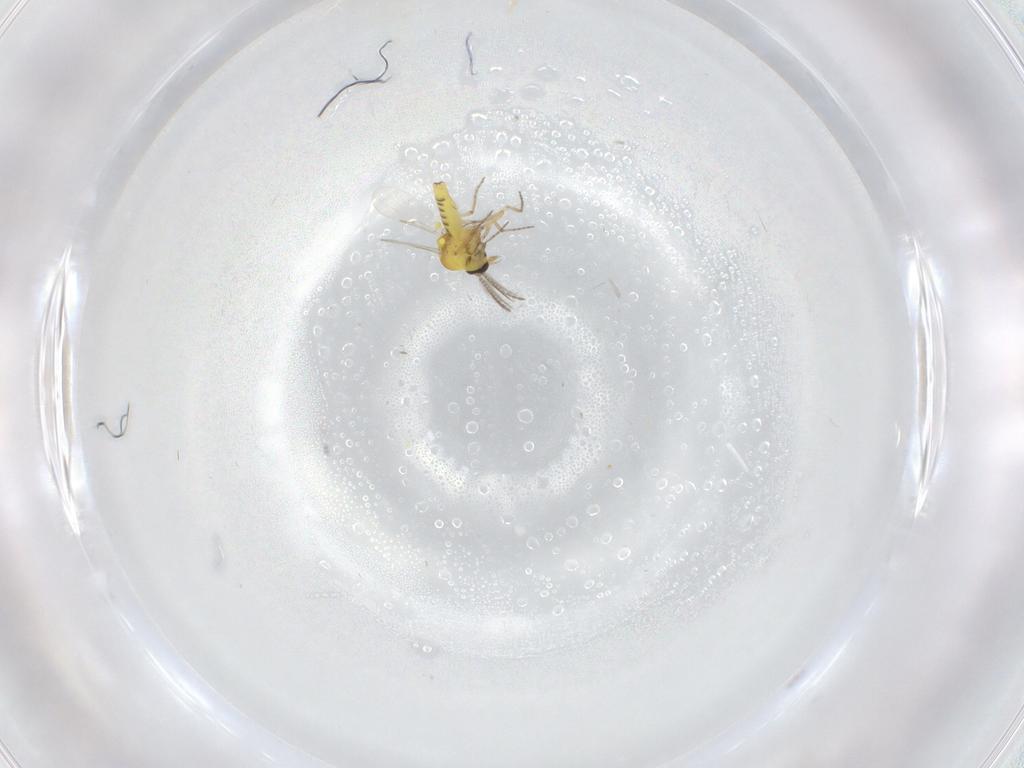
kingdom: Animalia
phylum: Arthropoda
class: Insecta
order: Diptera
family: Ceratopogonidae
